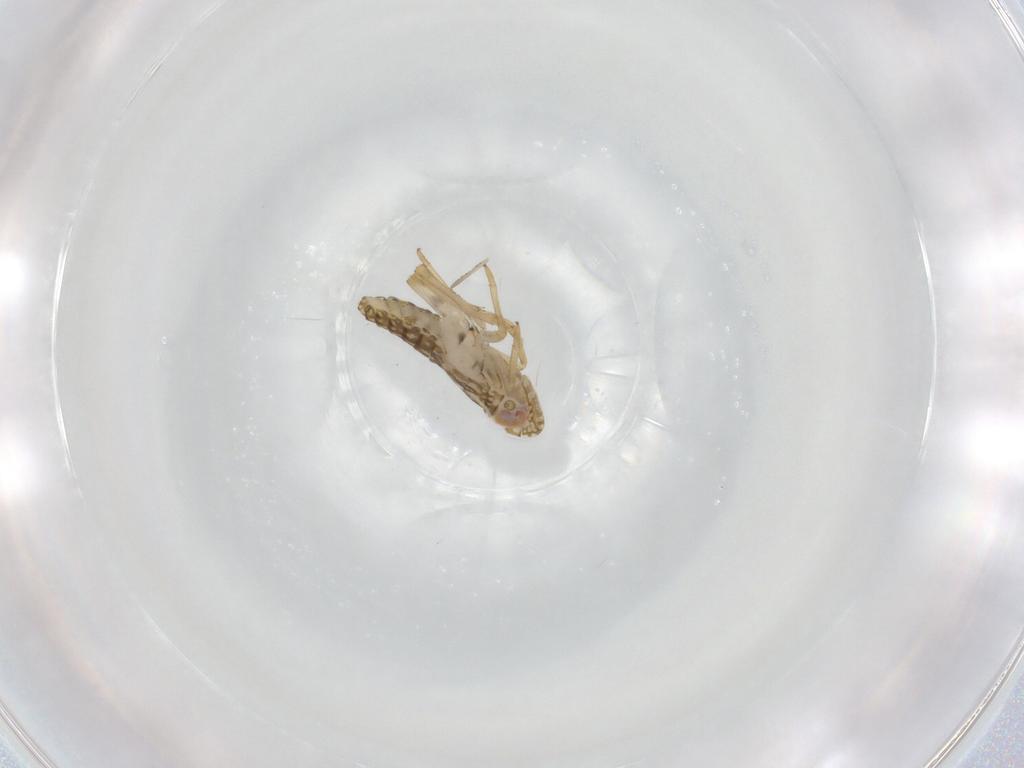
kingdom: Animalia
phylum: Arthropoda
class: Insecta
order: Hemiptera
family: Delphacidae
